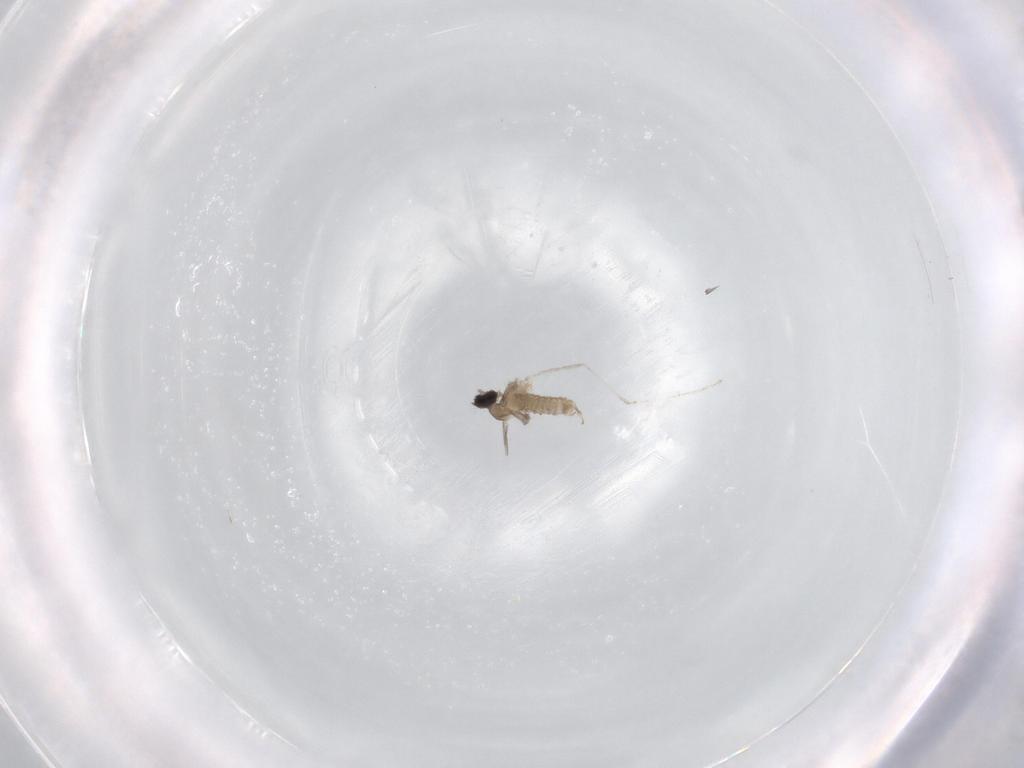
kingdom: Animalia
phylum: Arthropoda
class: Insecta
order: Diptera
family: Cecidomyiidae
